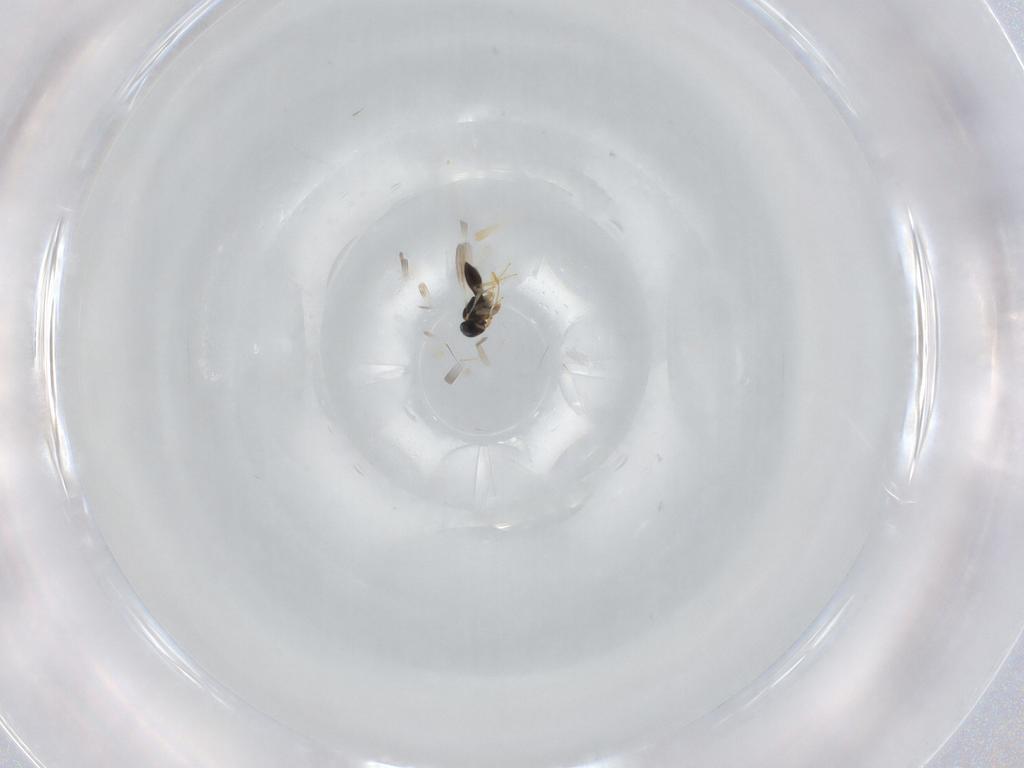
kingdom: Animalia
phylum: Arthropoda
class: Insecta
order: Hymenoptera
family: Scelionidae
